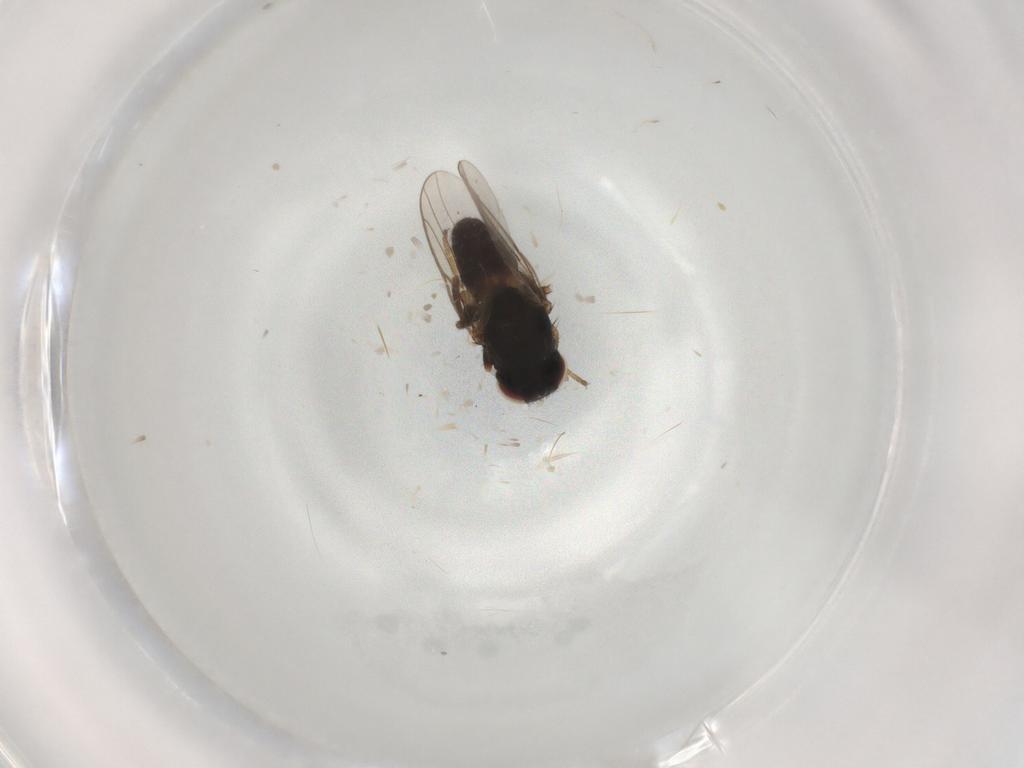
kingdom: Animalia
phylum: Arthropoda
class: Insecta
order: Diptera
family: Chloropidae
